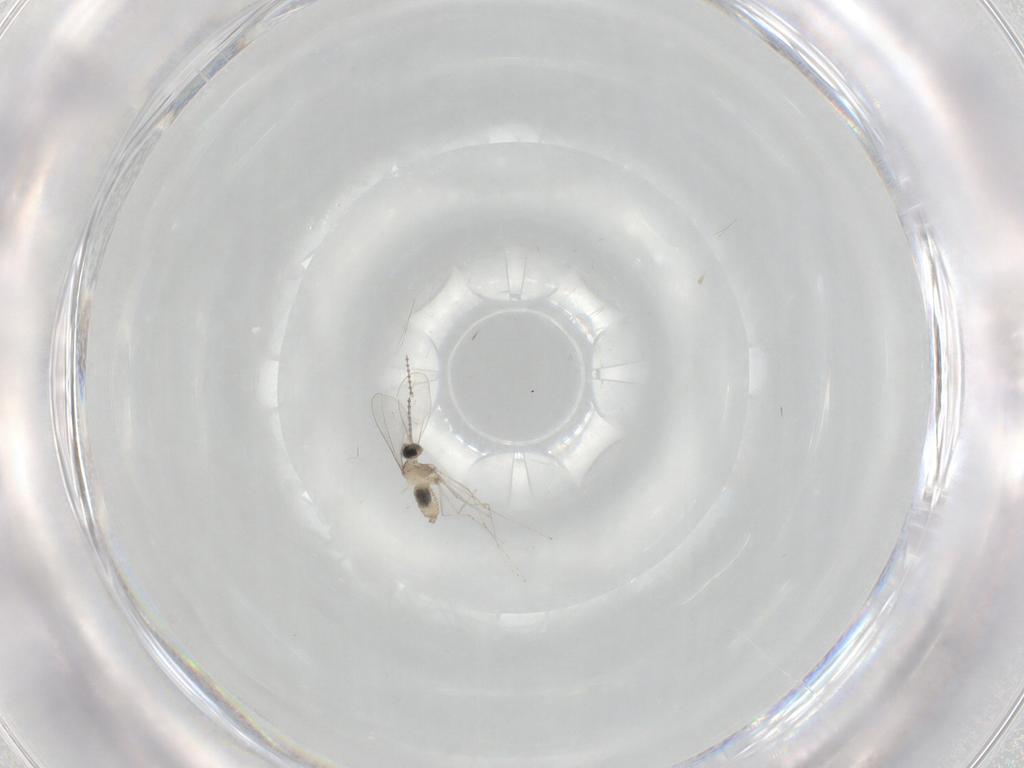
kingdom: Animalia
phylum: Arthropoda
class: Insecta
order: Diptera
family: Cecidomyiidae
